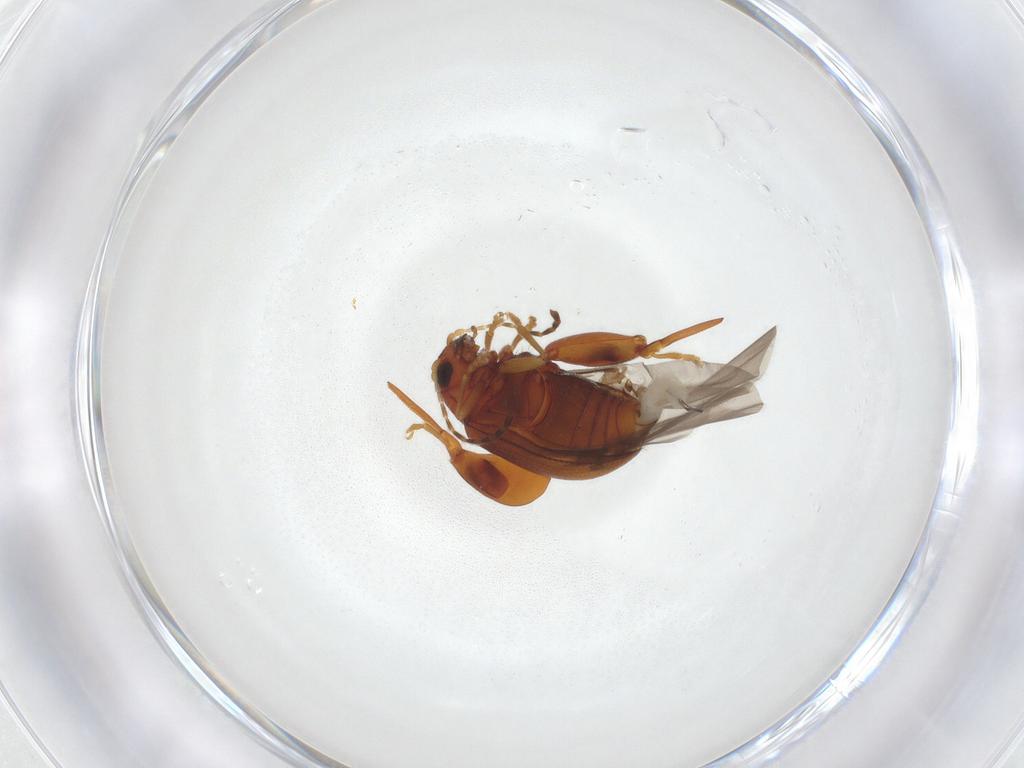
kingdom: Animalia
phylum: Arthropoda
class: Insecta
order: Coleoptera
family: Chrysomelidae
